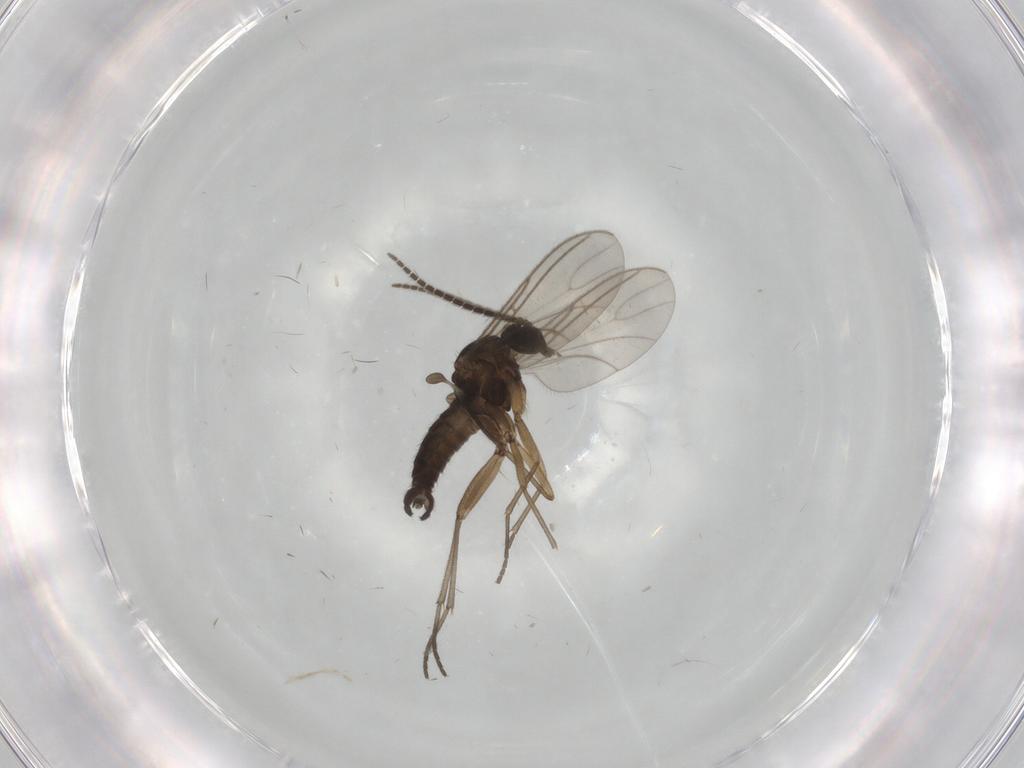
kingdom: Animalia
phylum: Arthropoda
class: Insecta
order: Diptera
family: Sciaridae
